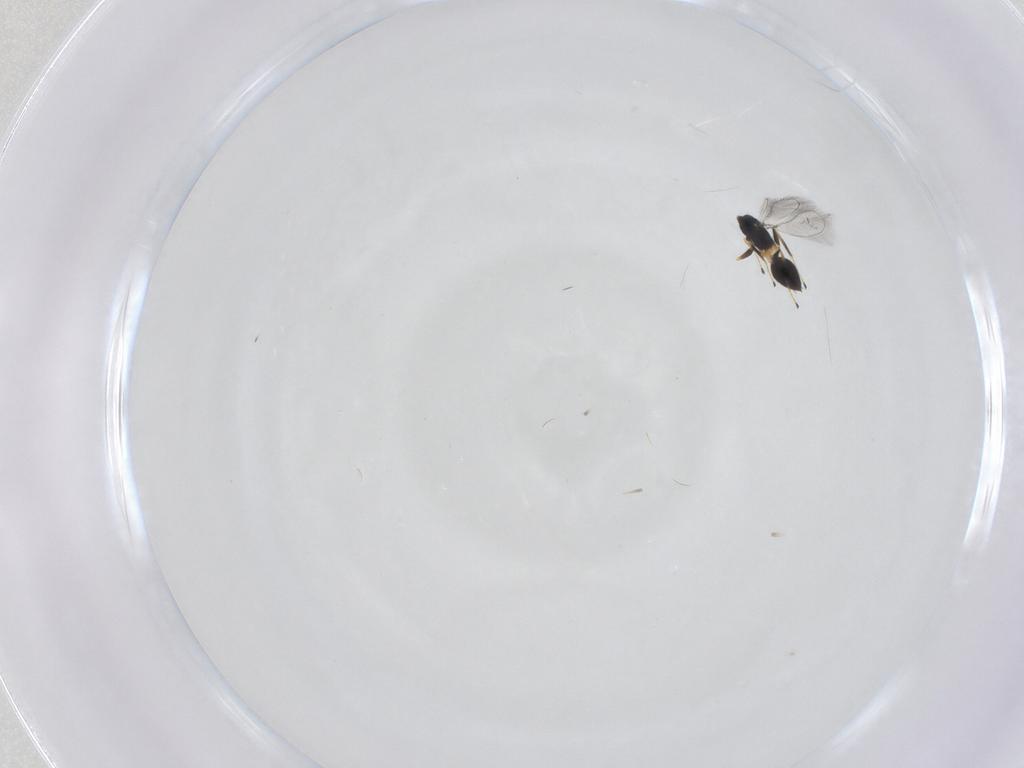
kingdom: Animalia
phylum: Arthropoda
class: Insecta
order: Hymenoptera
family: Mymaridae
